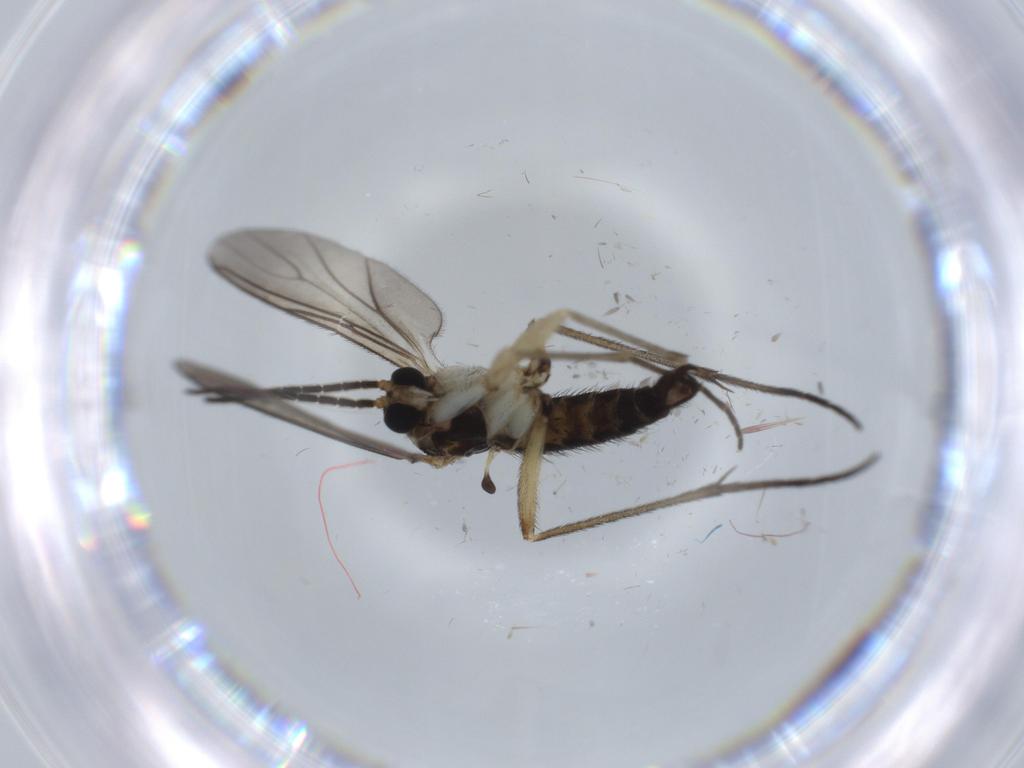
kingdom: Animalia
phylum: Arthropoda
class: Insecta
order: Diptera
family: Sciaridae
